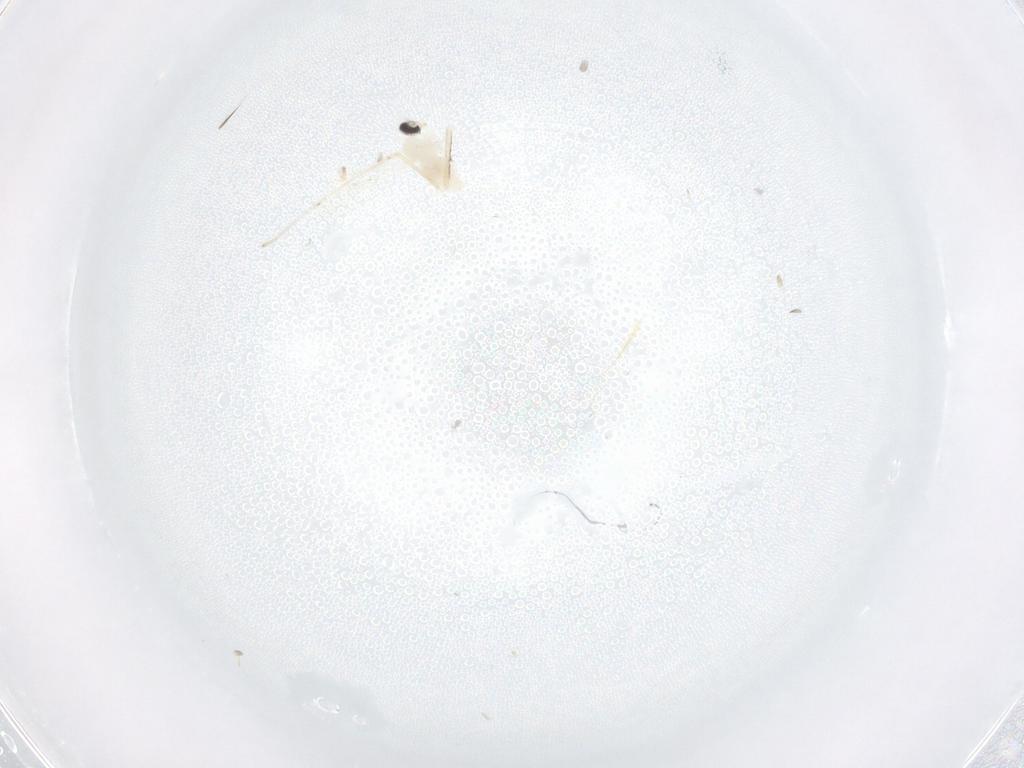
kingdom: Animalia
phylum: Arthropoda
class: Insecta
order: Diptera
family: Cecidomyiidae
